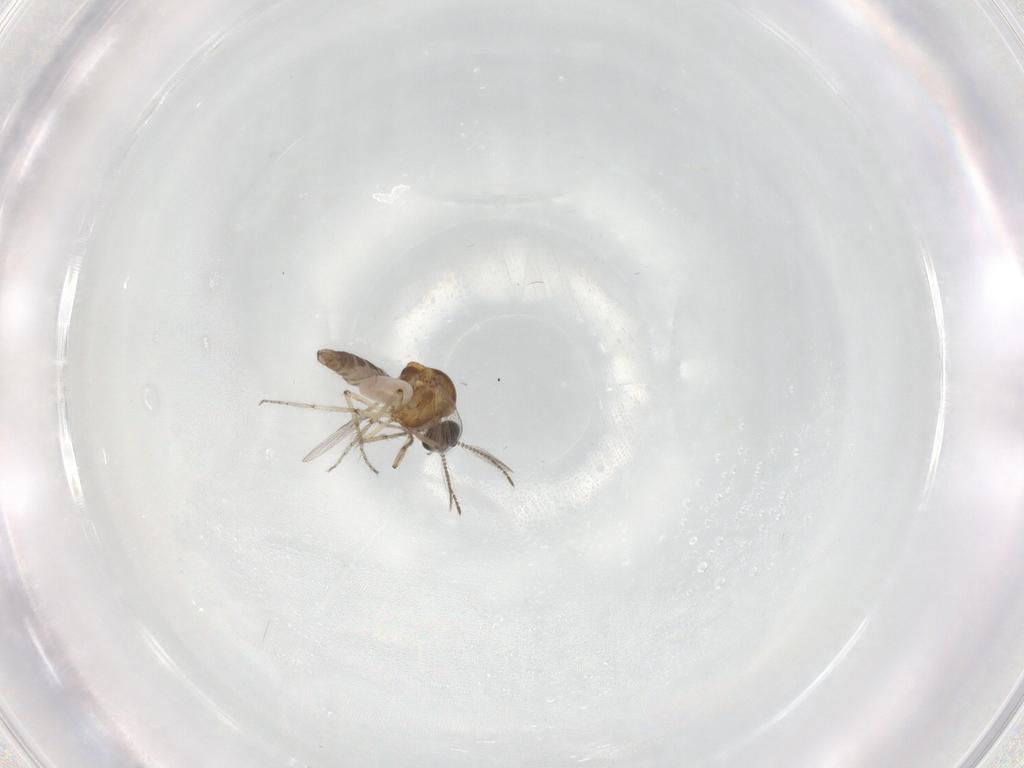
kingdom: Animalia
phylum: Arthropoda
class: Insecta
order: Diptera
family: Ceratopogonidae
